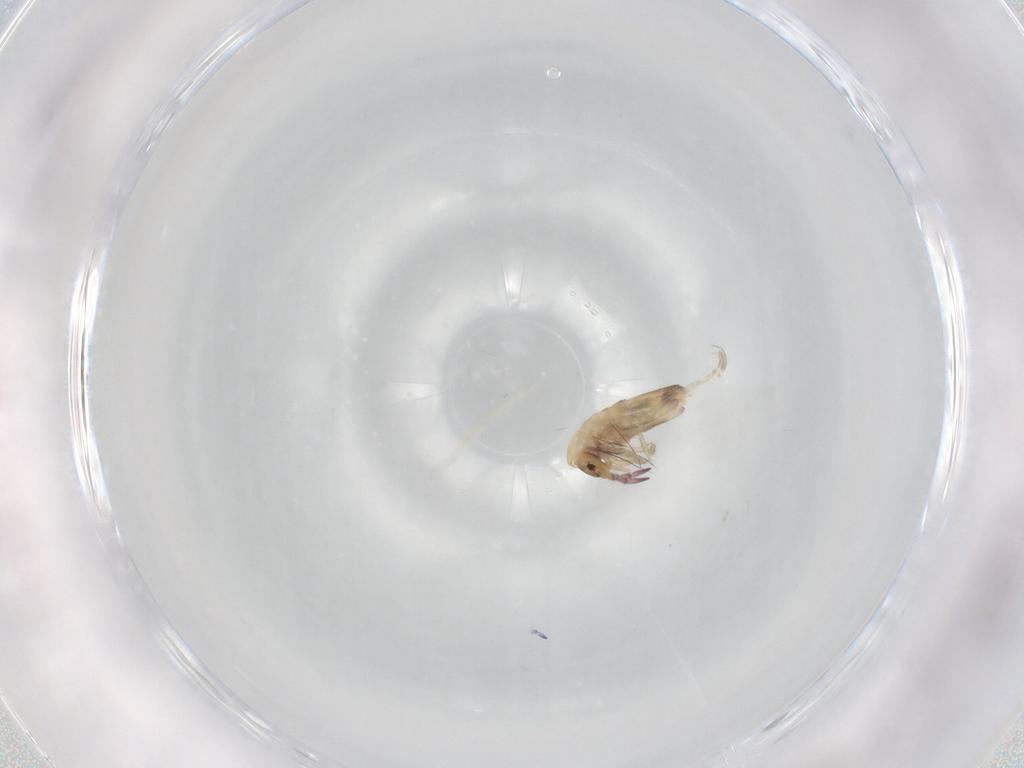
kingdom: Animalia
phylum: Arthropoda
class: Collembola
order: Entomobryomorpha
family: Entomobryidae
